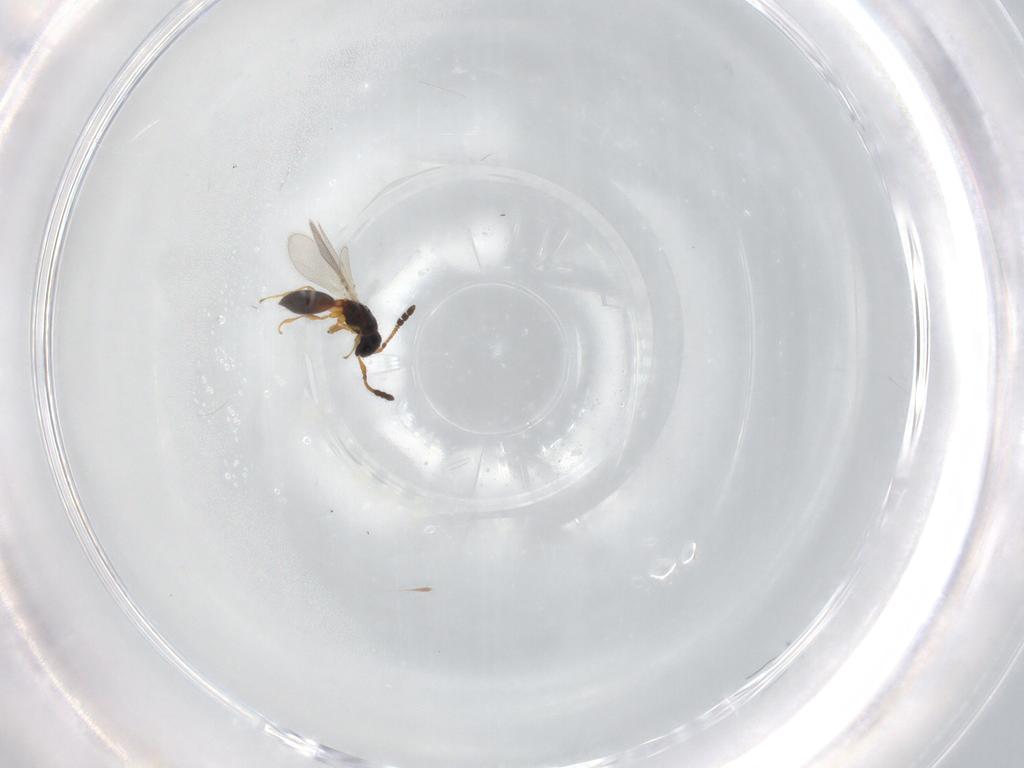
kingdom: Animalia
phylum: Arthropoda
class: Insecta
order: Hymenoptera
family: Diapriidae
